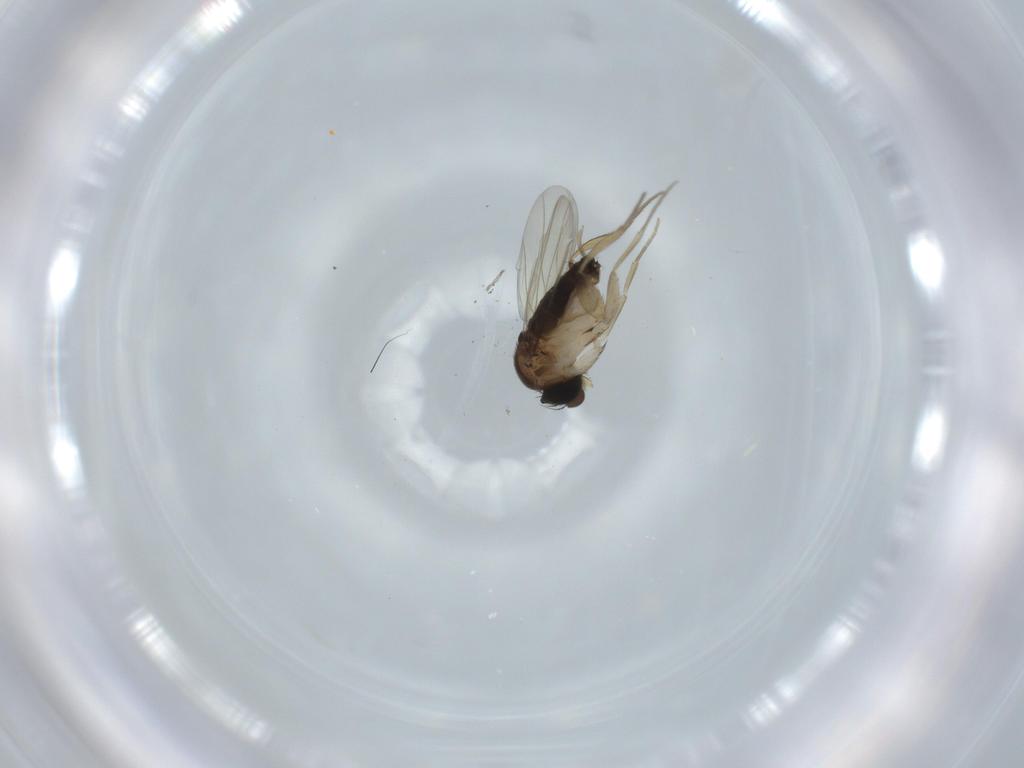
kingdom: Animalia
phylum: Arthropoda
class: Insecta
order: Diptera
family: Phoridae
